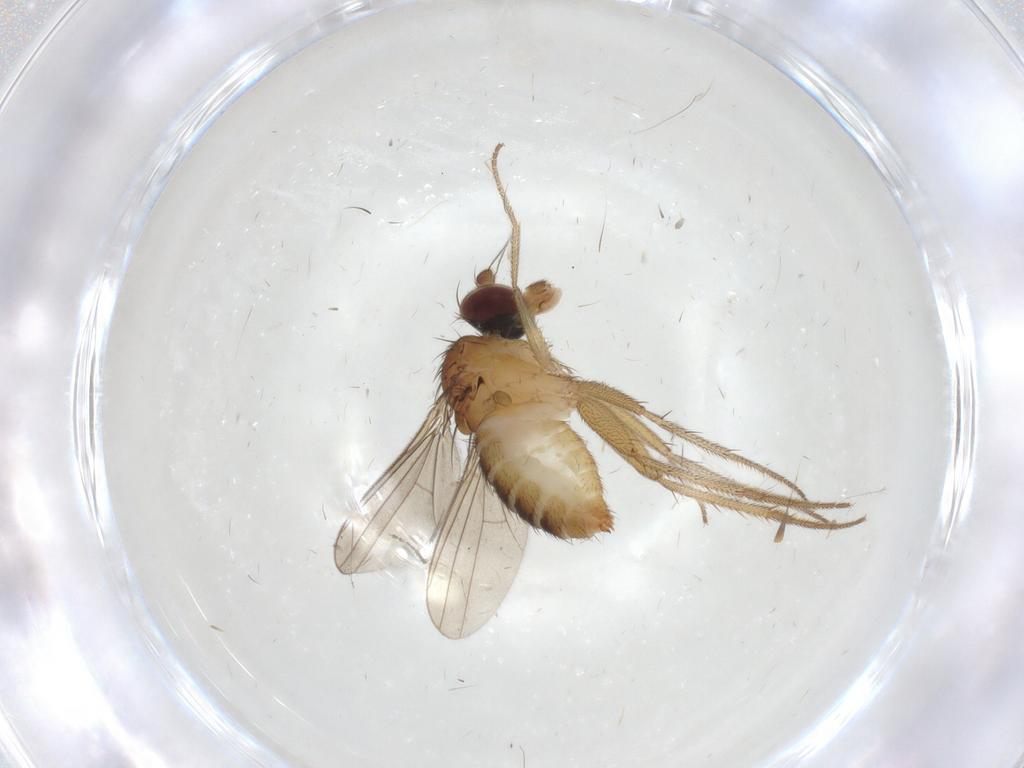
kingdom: Animalia
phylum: Arthropoda
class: Insecta
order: Diptera
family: Dolichopodidae
